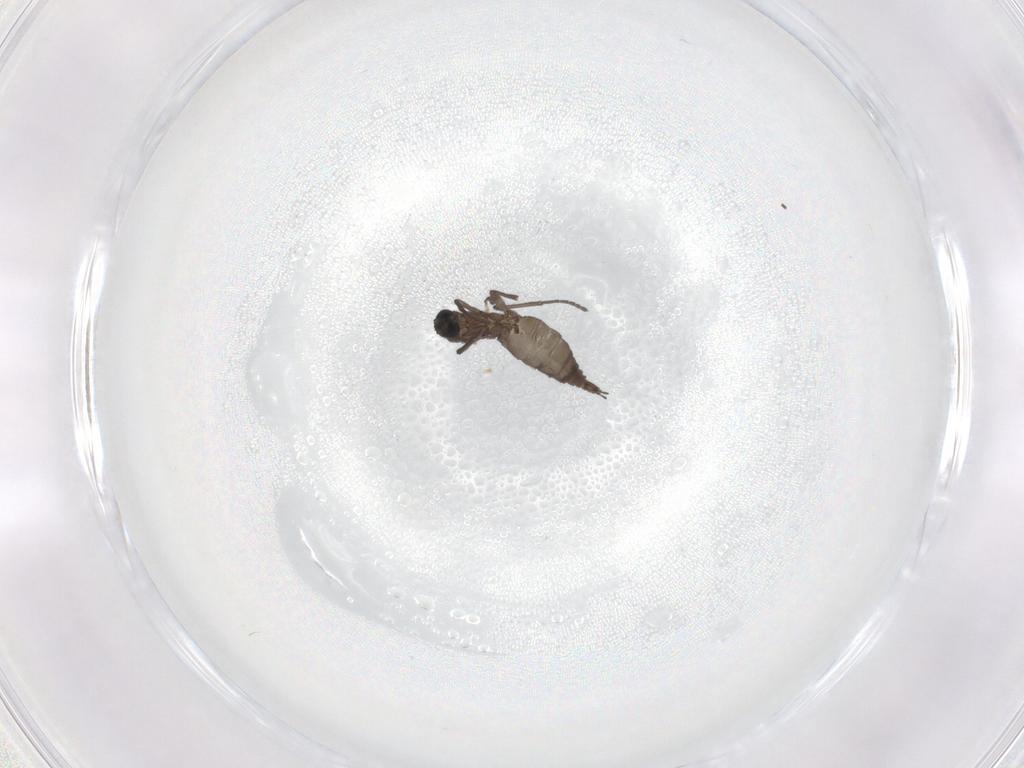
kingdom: Animalia
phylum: Arthropoda
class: Insecta
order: Diptera
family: Sciaridae
